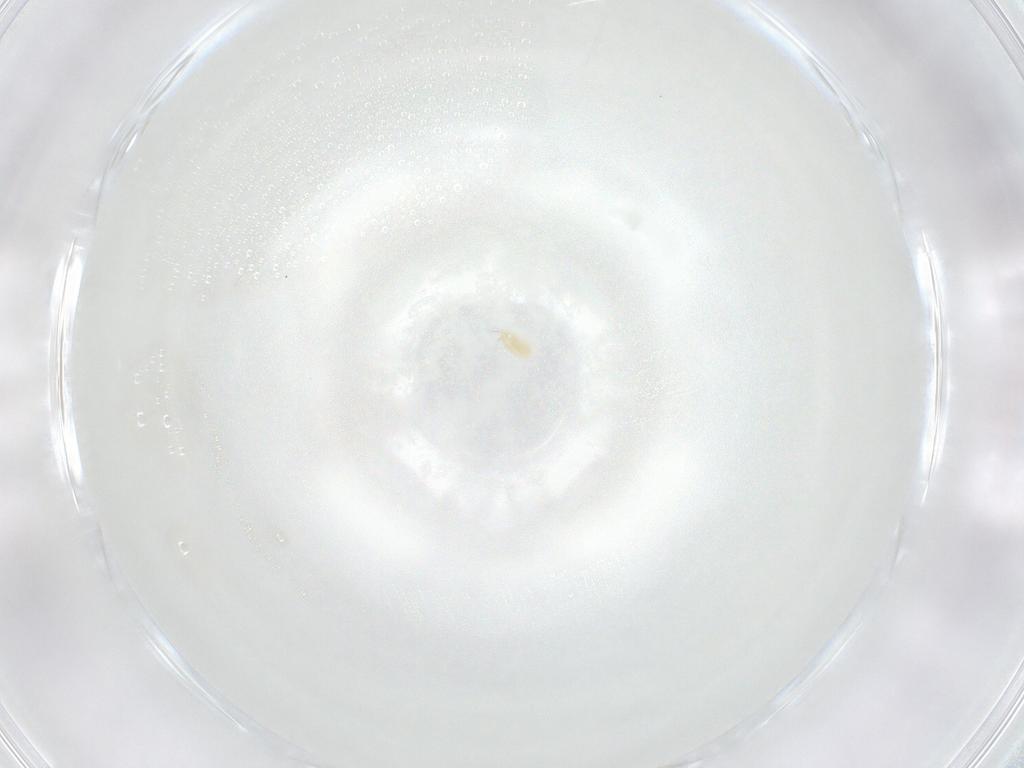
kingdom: Animalia
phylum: Arthropoda
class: Arachnida
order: Trombidiformes
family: Eupodidae
